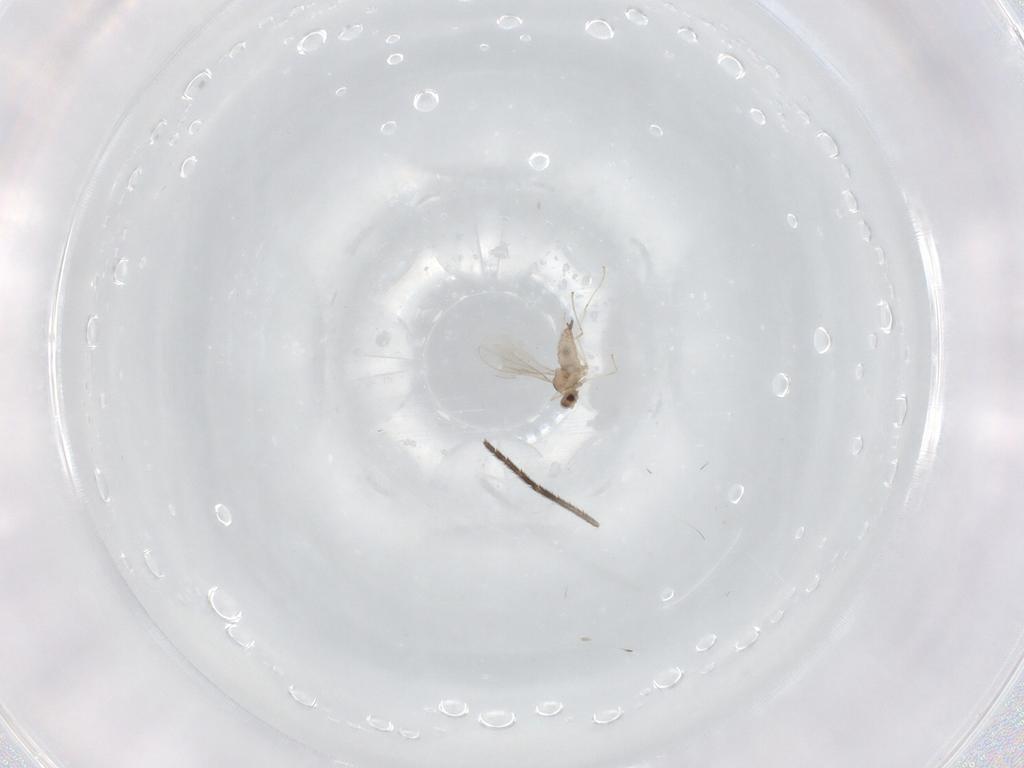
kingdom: Animalia
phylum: Arthropoda
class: Insecta
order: Diptera
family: Cecidomyiidae
